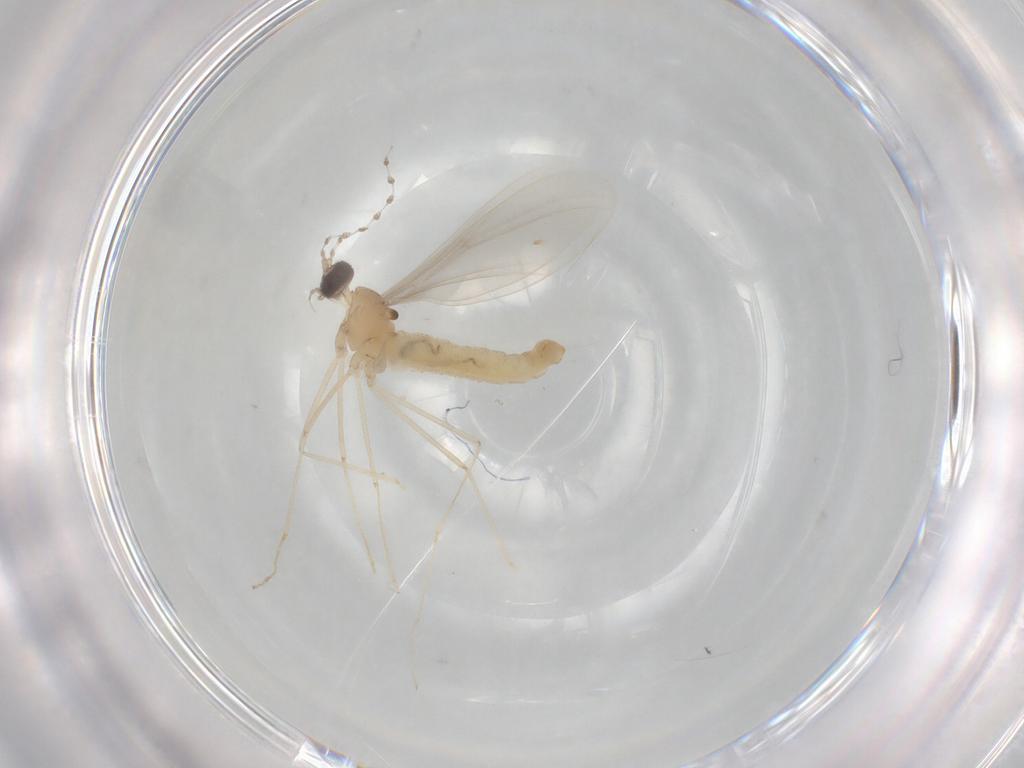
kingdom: Animalia
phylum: Arthropoda
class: Insecta
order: Diptera
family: Cecidomyiidae
